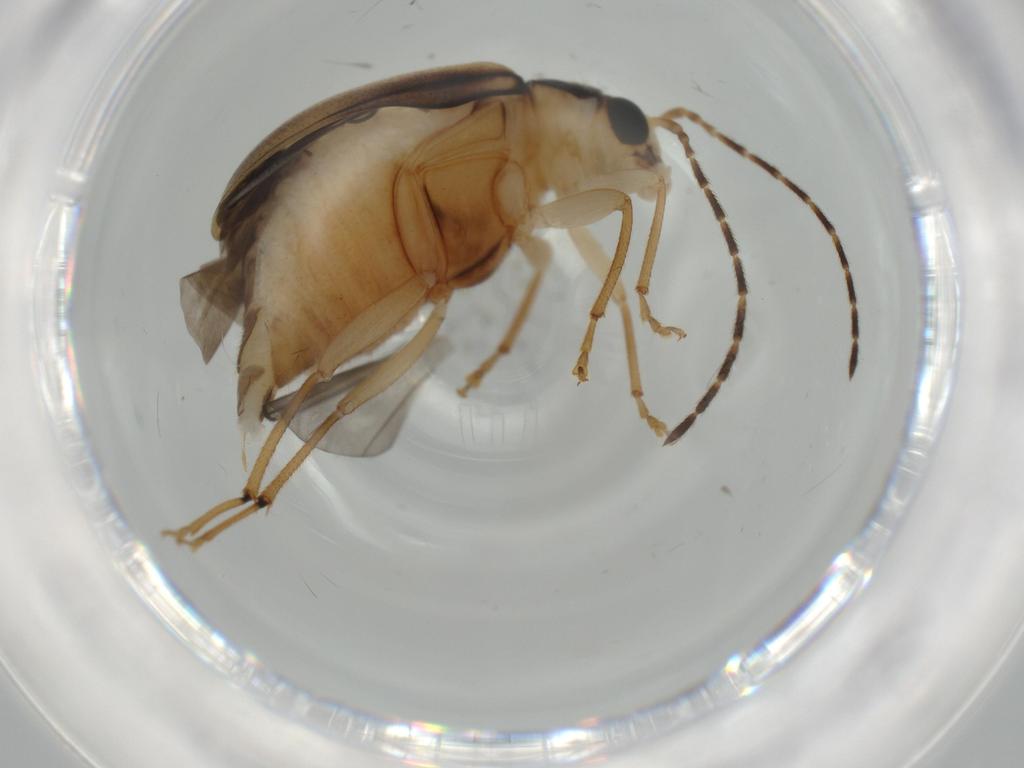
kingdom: Animalia
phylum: Arthropoda
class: Insecta
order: Coleoptera
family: Chrysomelidae
